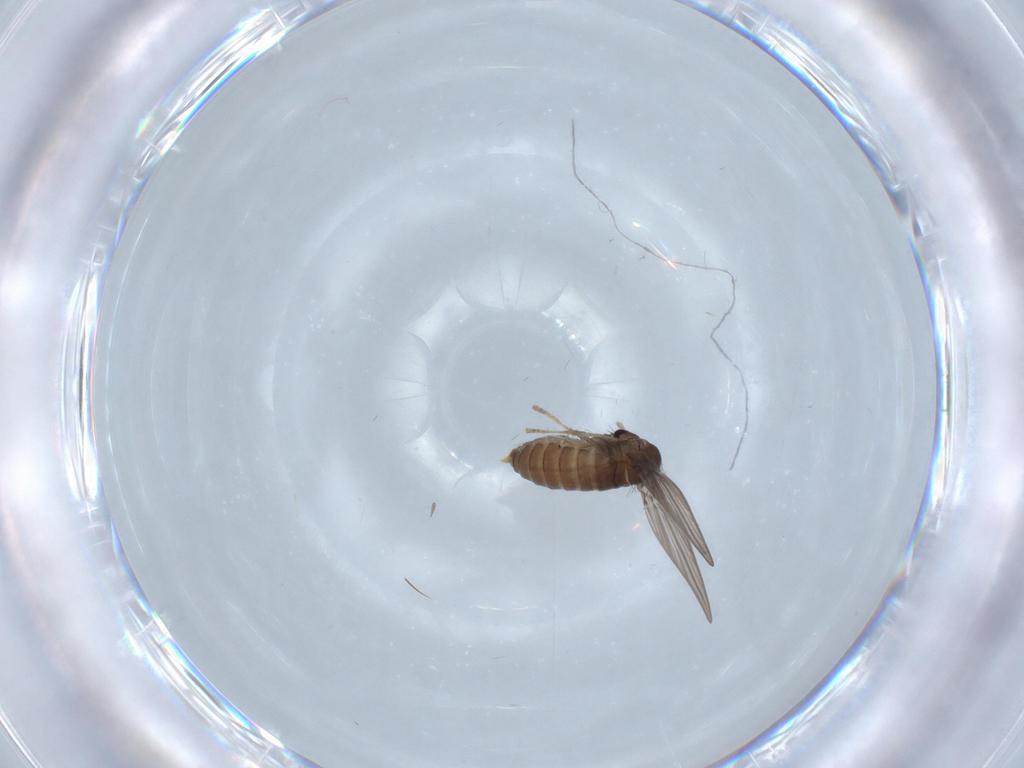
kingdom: Animalia
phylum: Arthropoda
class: Insecta
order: Diptera
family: Psychodidae
